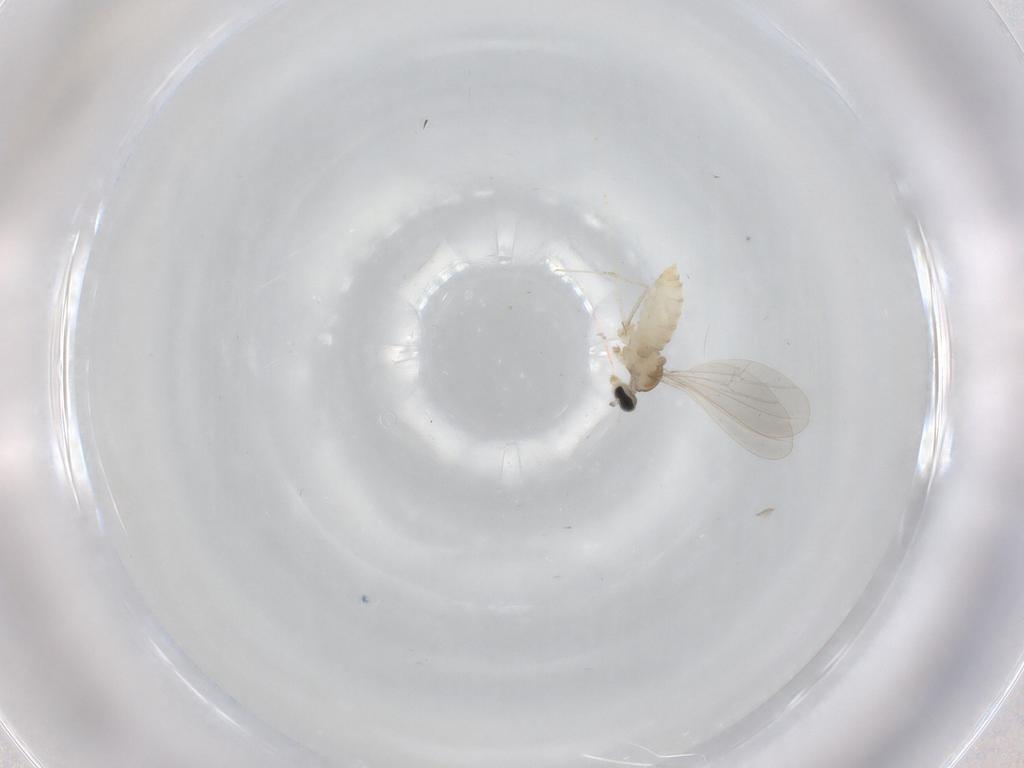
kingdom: Animalia
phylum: Arthropoda
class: Insecta
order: Diptera
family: Cecidomyiidae
